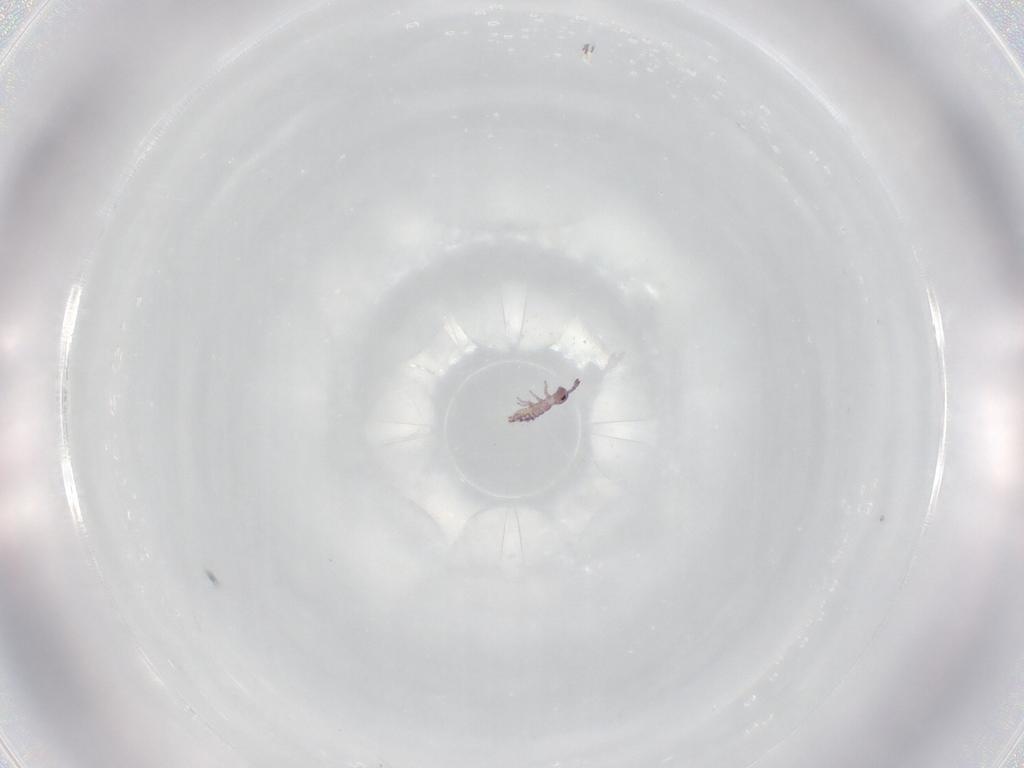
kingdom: Animalia
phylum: Arthropoda
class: Collembola
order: Entomobryomorpha
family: Isotomidae
